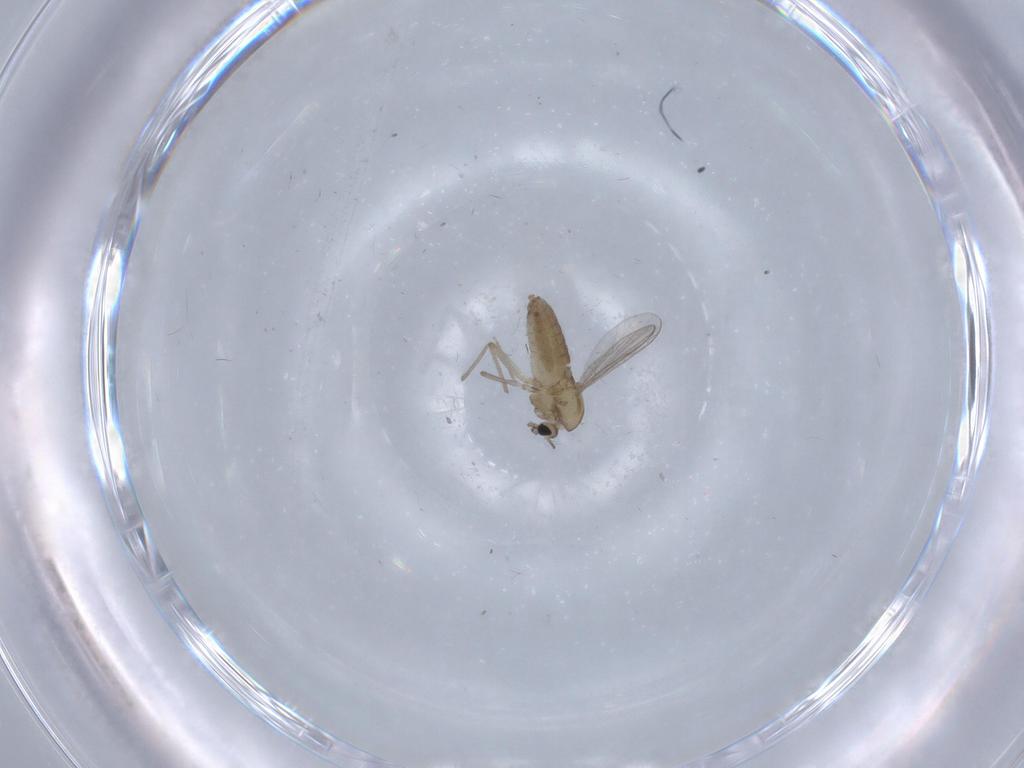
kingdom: Animalia
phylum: Arthropoda
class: Insecta
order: Diptera
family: Chironomidae
